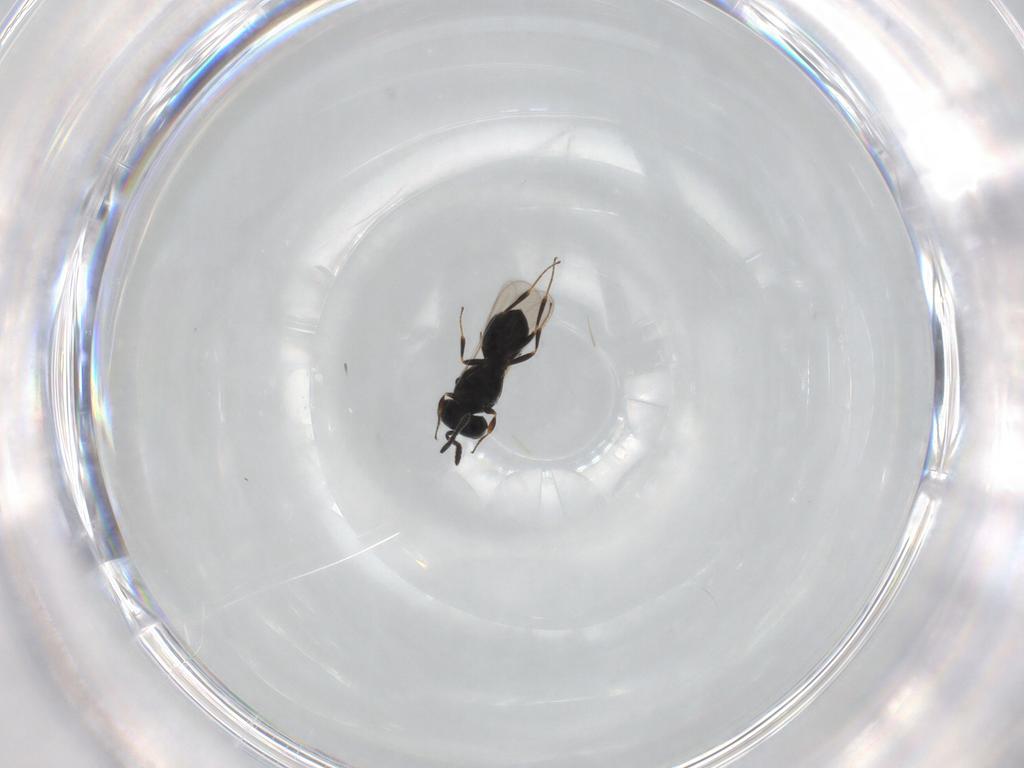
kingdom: Animalia
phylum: Arthropoda
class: Insecta
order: Hymenoptera
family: Scelionidae
